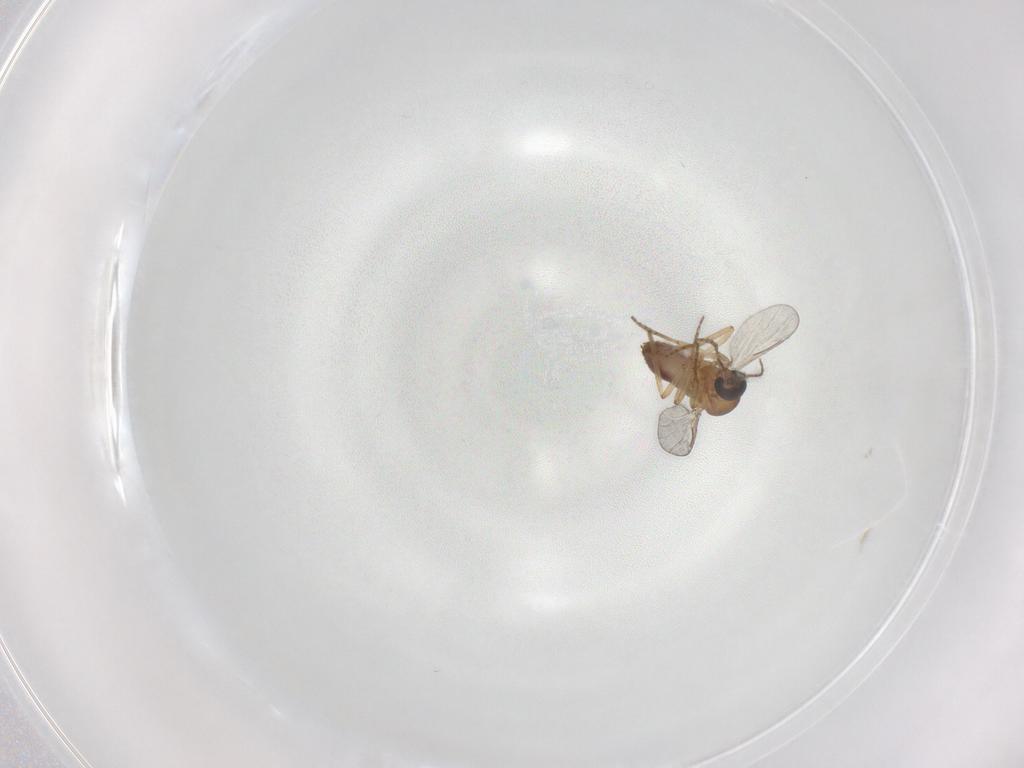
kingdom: Animalia
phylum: Arthropoda
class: Insecta
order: Diptera
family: Ceratopogonidae
